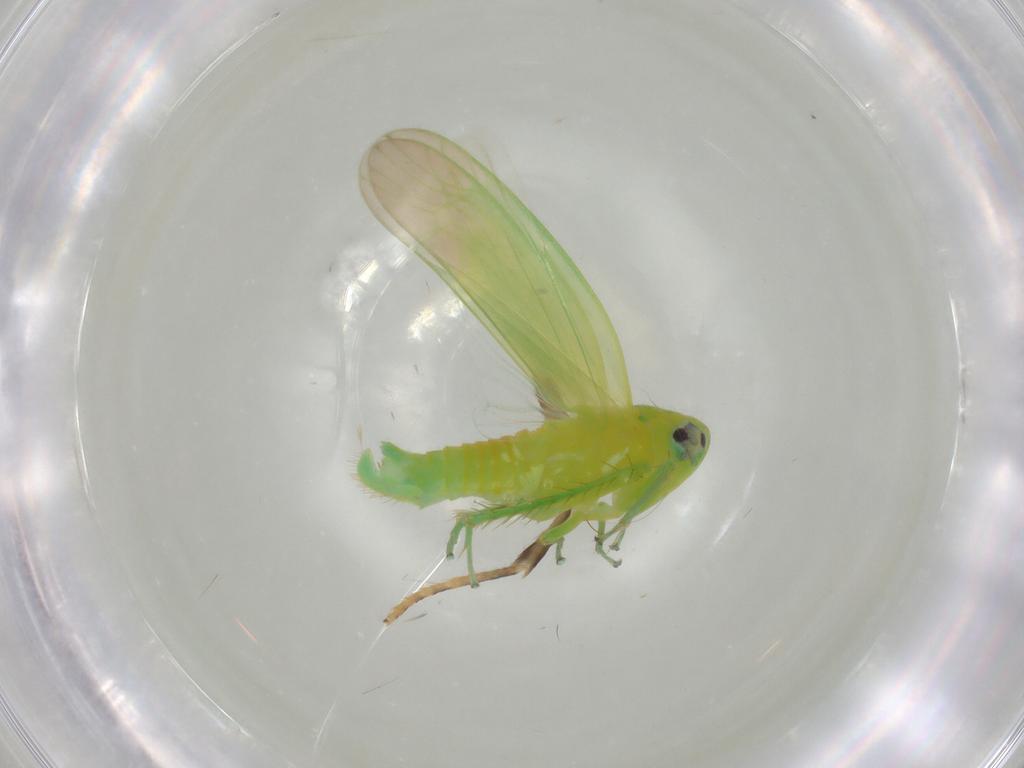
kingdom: Animalia
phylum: Arthropoda
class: Insecta
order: Hemiptera
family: Cicadellidae
